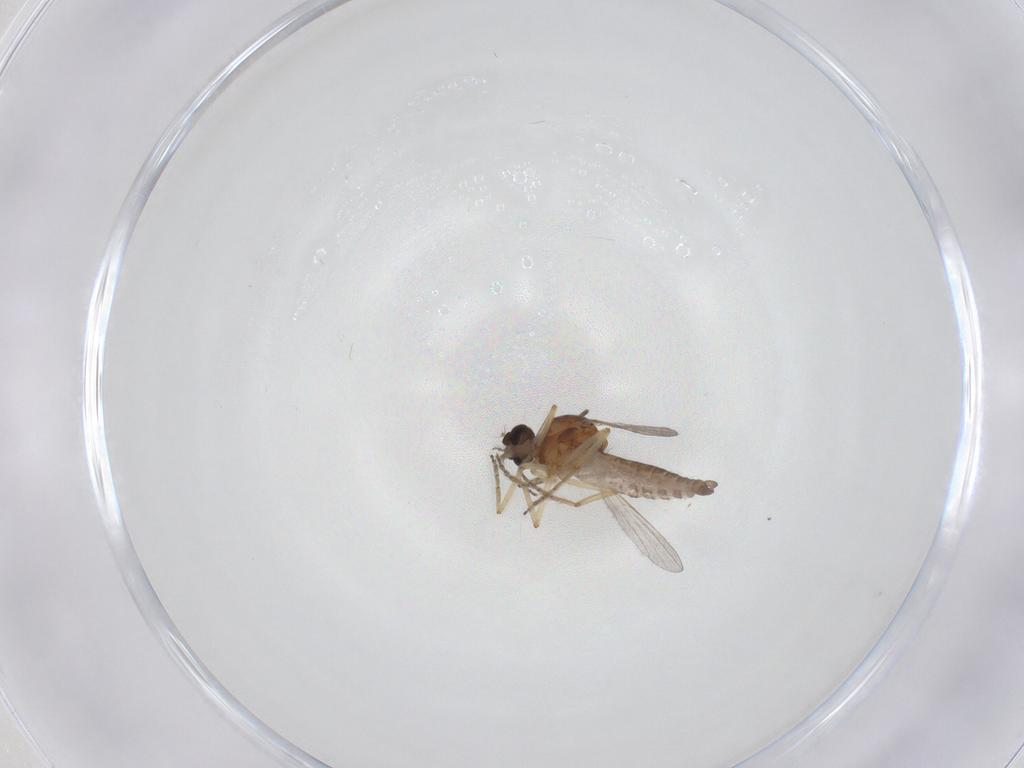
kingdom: Animalia
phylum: Arthropoda
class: Insecta
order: Diptera
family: Ceratopogonidae
